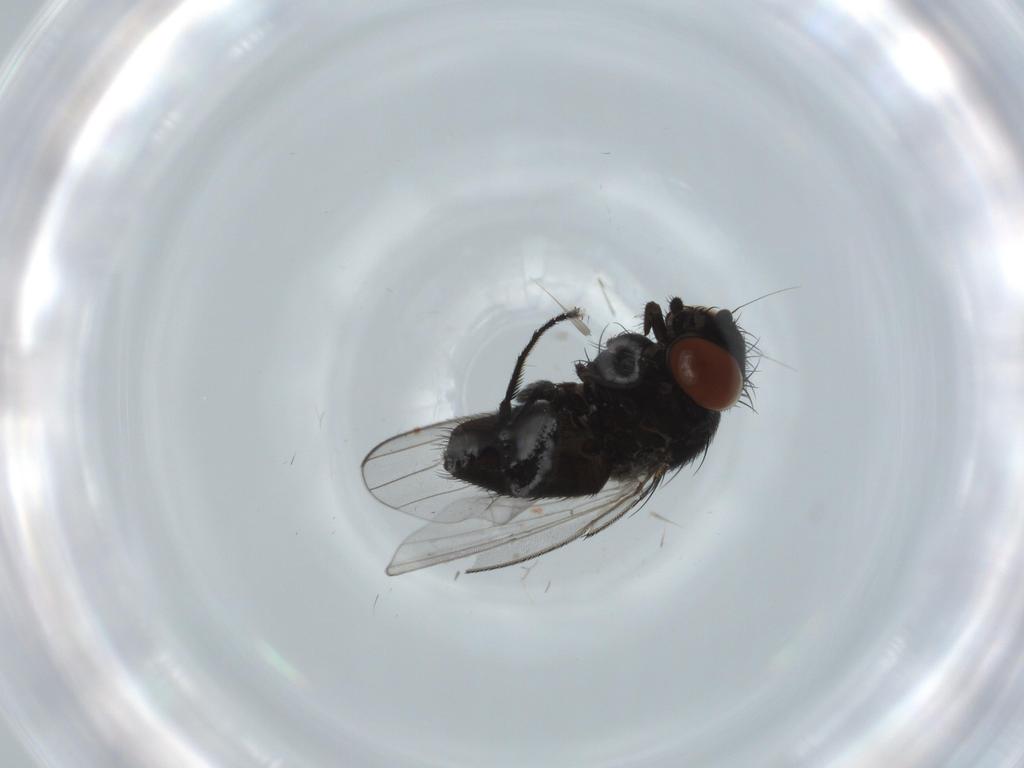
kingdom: Animalia
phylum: Arthropoda
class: Insecta
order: Diptera
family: Milichiidae
